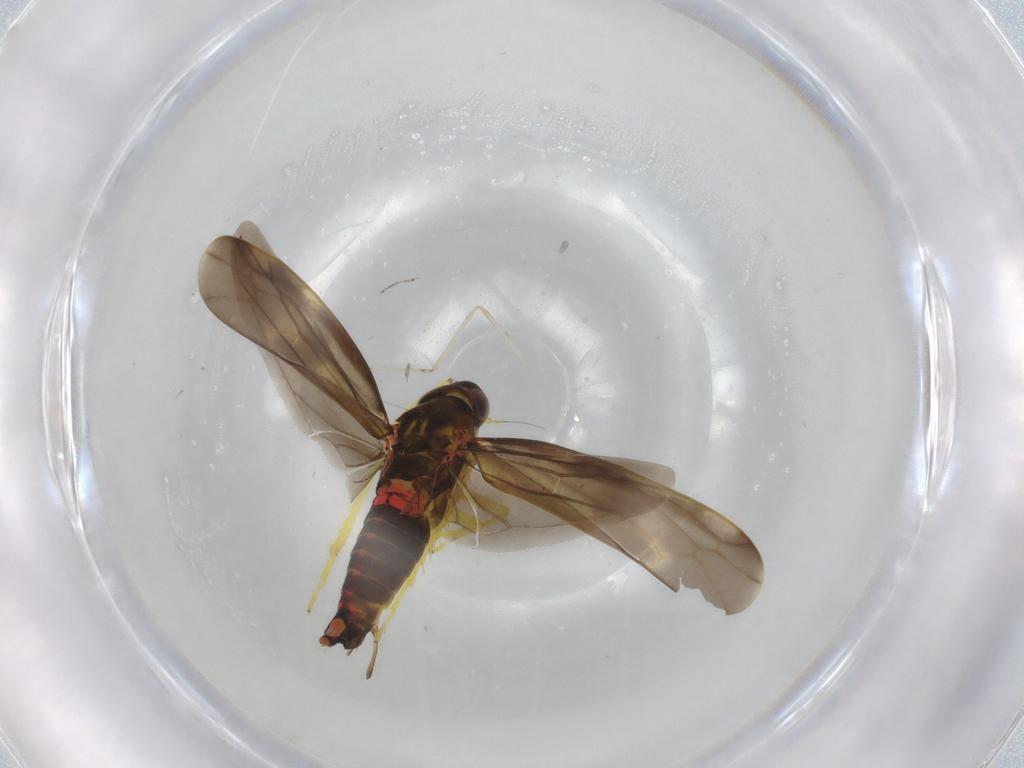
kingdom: Animalia
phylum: Arthropoda
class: Insecta
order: Hemiptera
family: Cicadellidae
